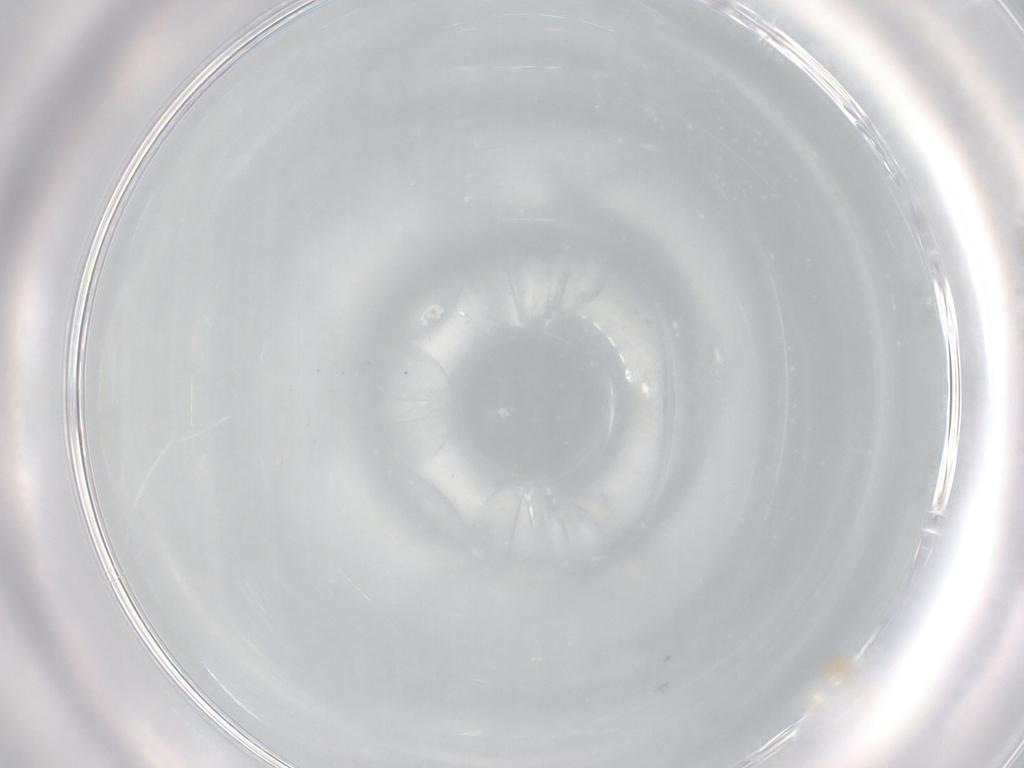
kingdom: Animalia
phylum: Arthropoda
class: Arachnida
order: Trombidiformes
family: Erythraeidae
